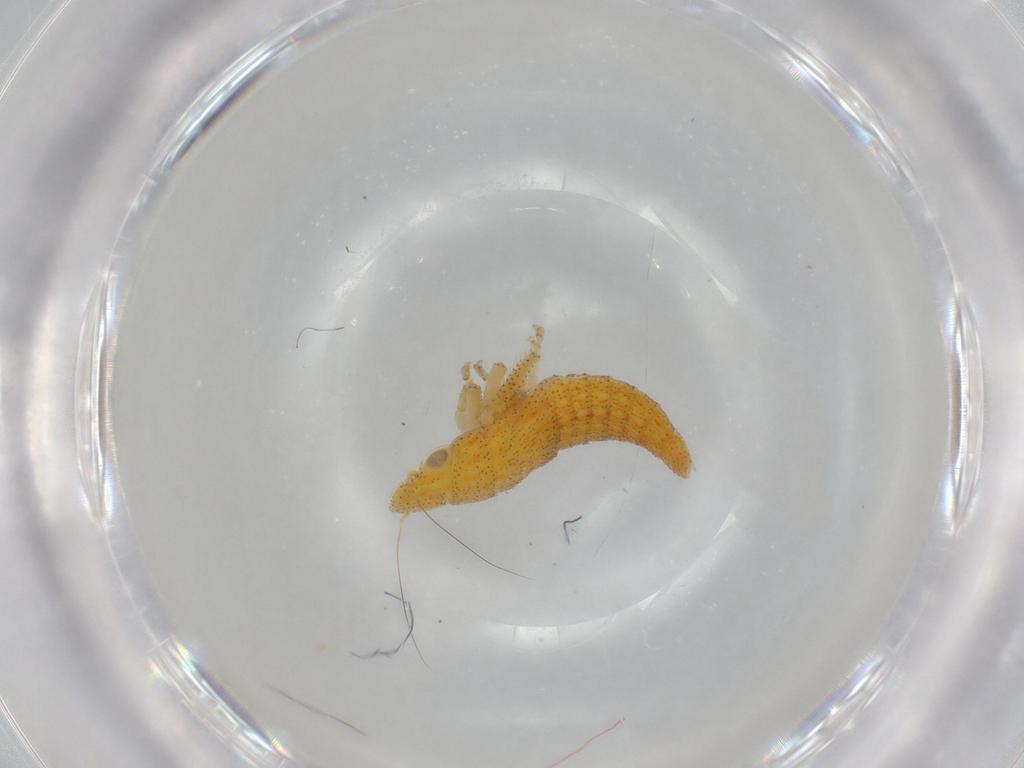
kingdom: Animalia
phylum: Arthropoda
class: Insecta
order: Hemiptera
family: Cicadellidae
